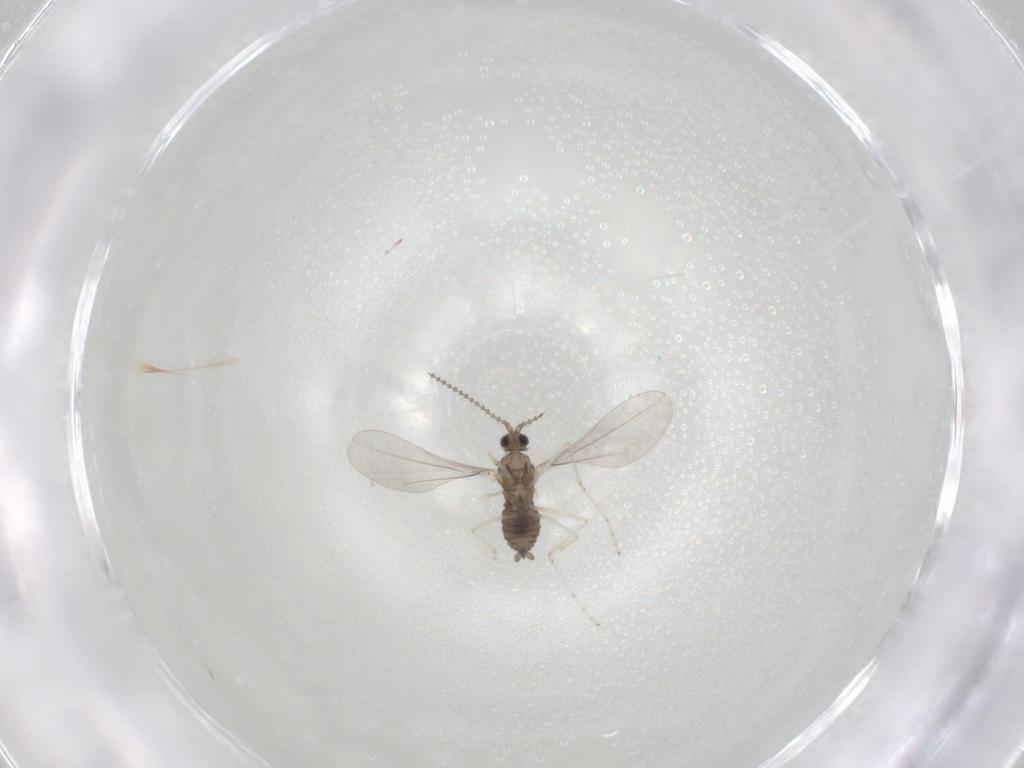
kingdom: Animalia
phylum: Arthropoda
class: Insecta
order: Diptera
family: Cecidomyiidae
